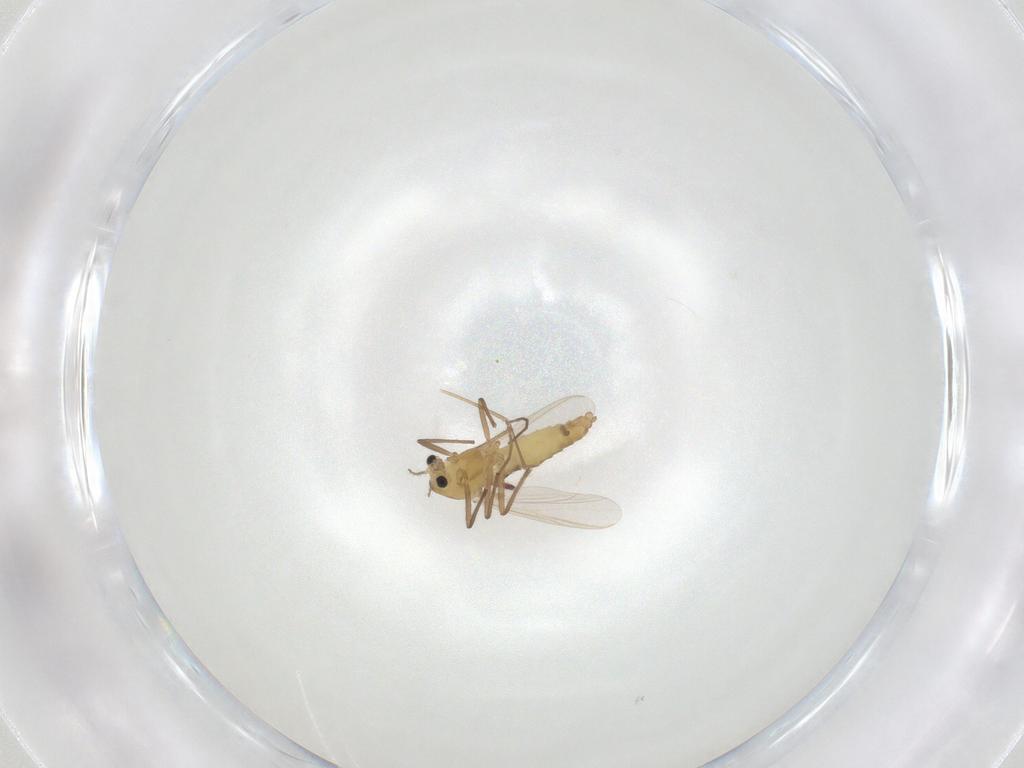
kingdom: Animalia
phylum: Arthropoda
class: Insecta
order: Diptera
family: Chironomidae
